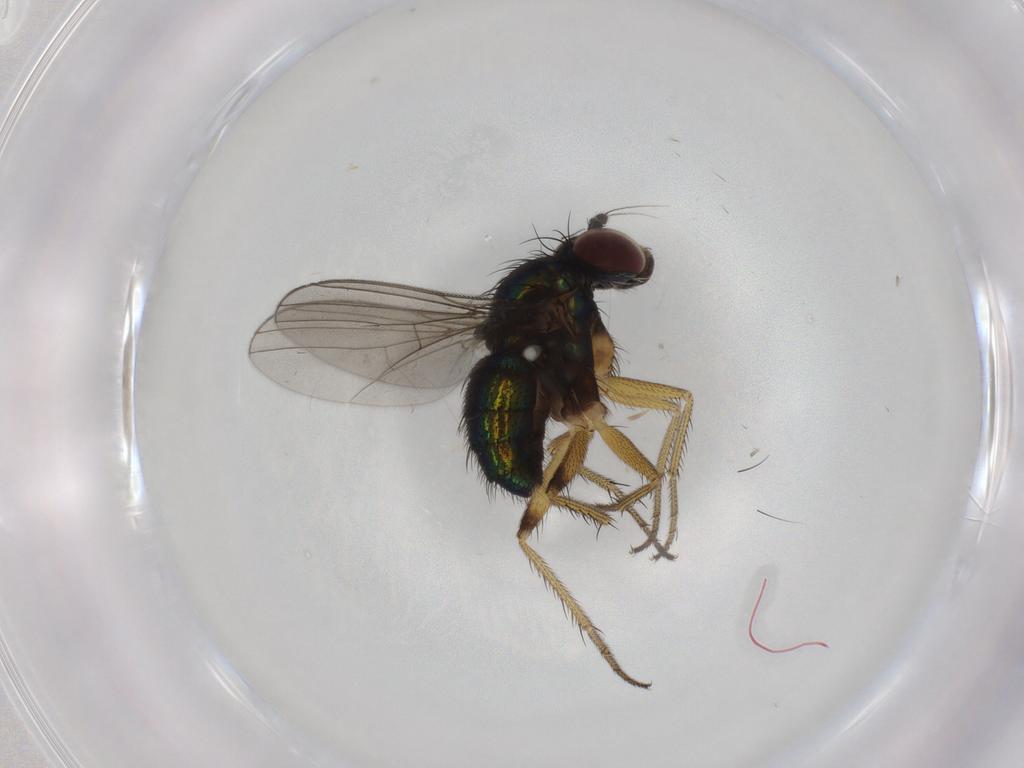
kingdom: Animalia
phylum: Arthropoda
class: Insecta
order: Diptera
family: Dolichopodidae
